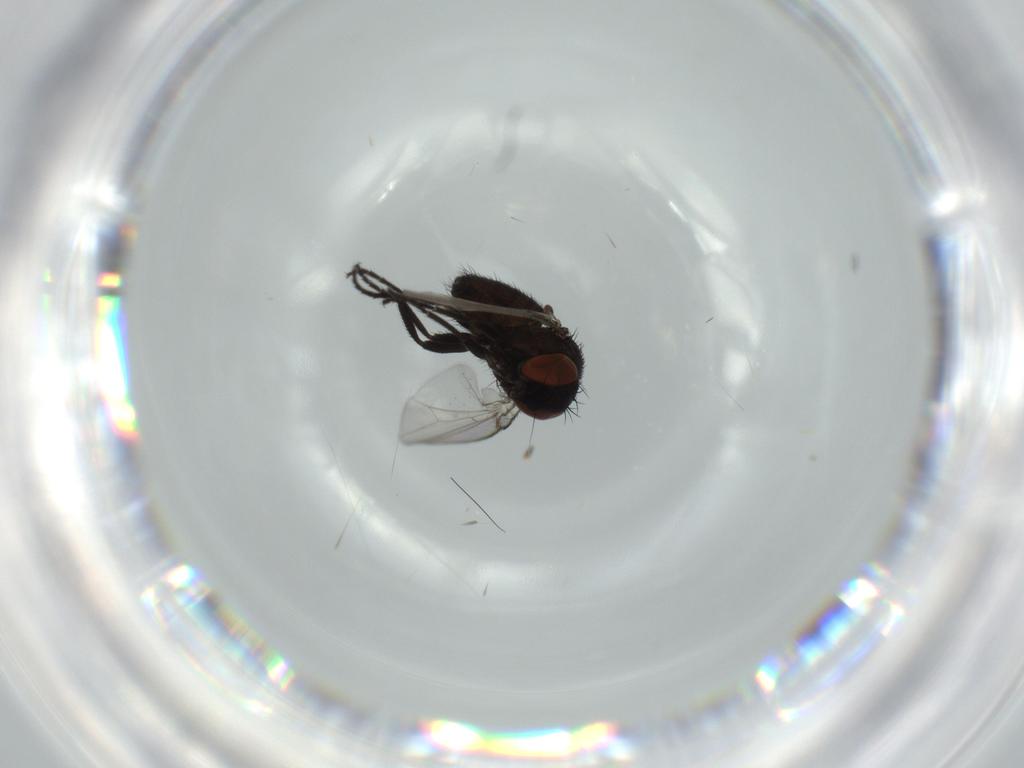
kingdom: Animalia
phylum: Arthropoda
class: Insecta
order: Diptera
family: Milichiidae
